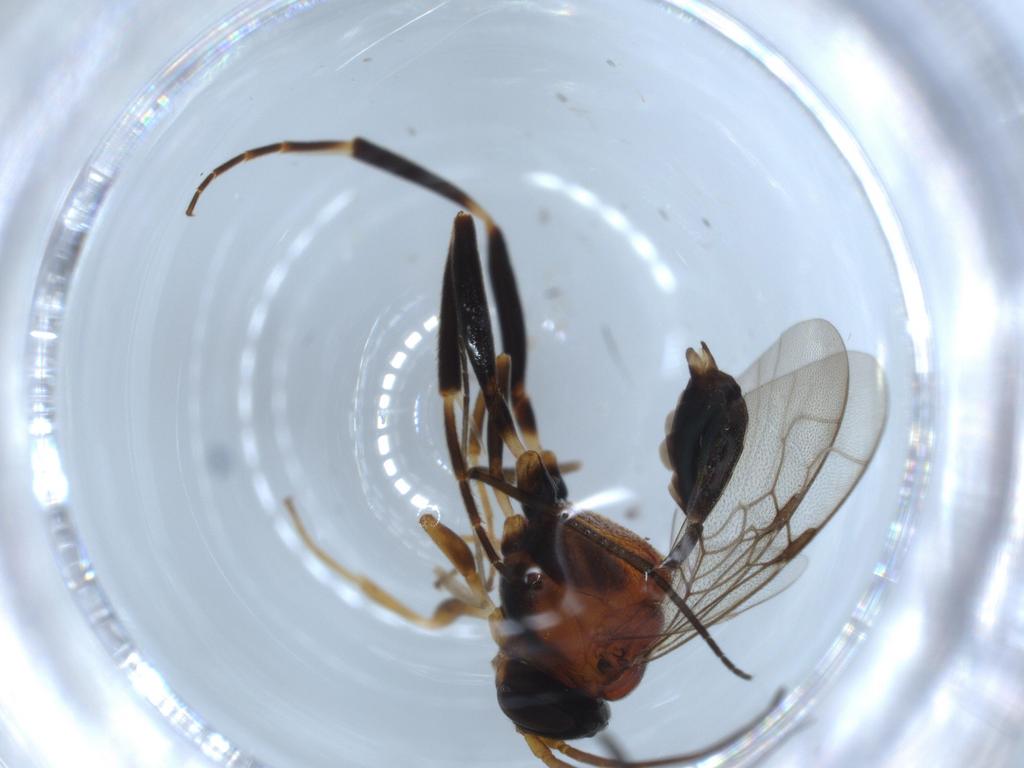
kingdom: Animalia
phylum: Arthropoda
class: Insecta
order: Hymenoptera
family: Evaniidae
